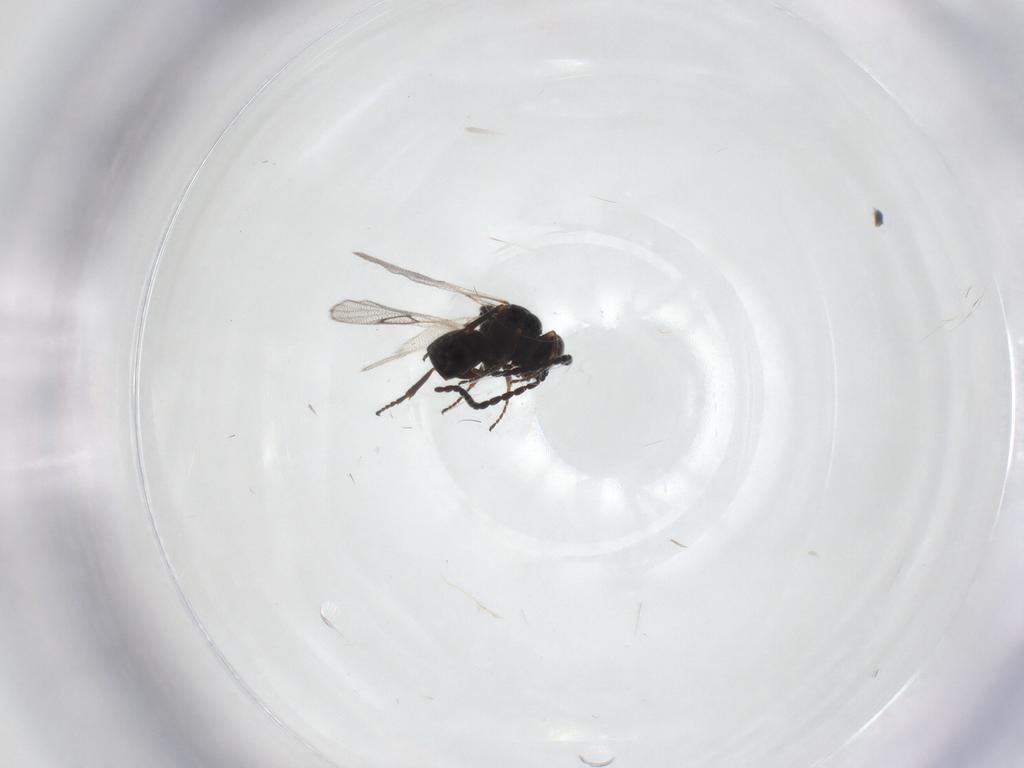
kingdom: Animalia
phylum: Arthropoda
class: Insecta
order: Hymenoptera
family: Figitidae
